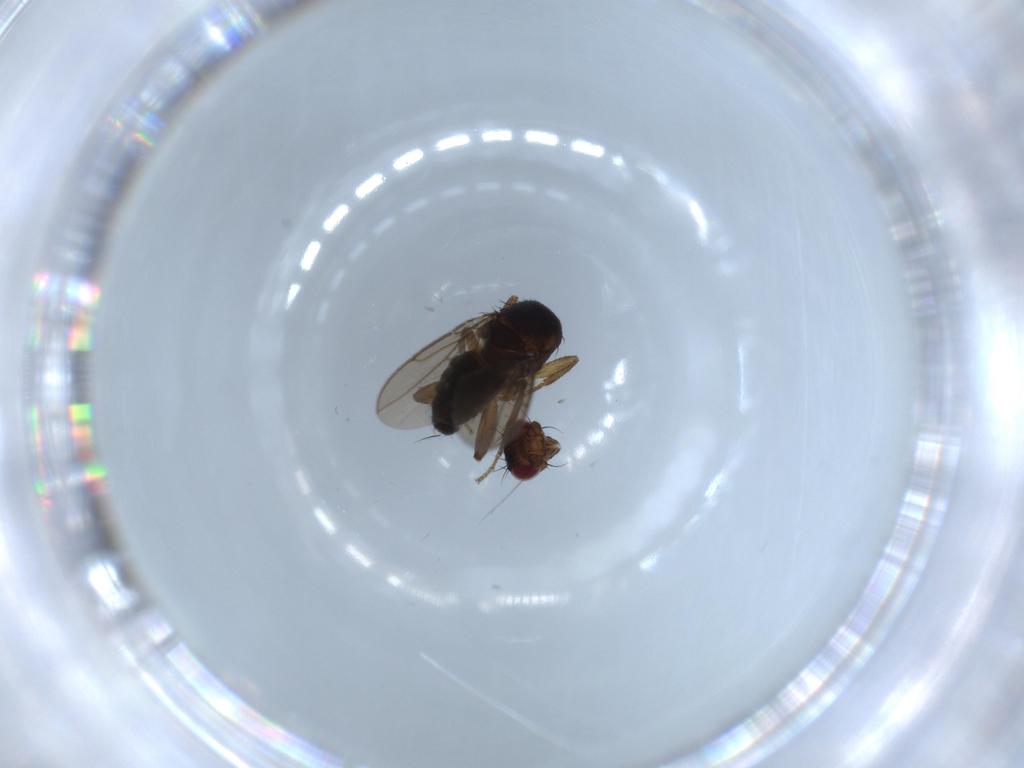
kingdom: Animalia
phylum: Arthropoda
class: Insecta
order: Diptera
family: Sphaeroceridae
